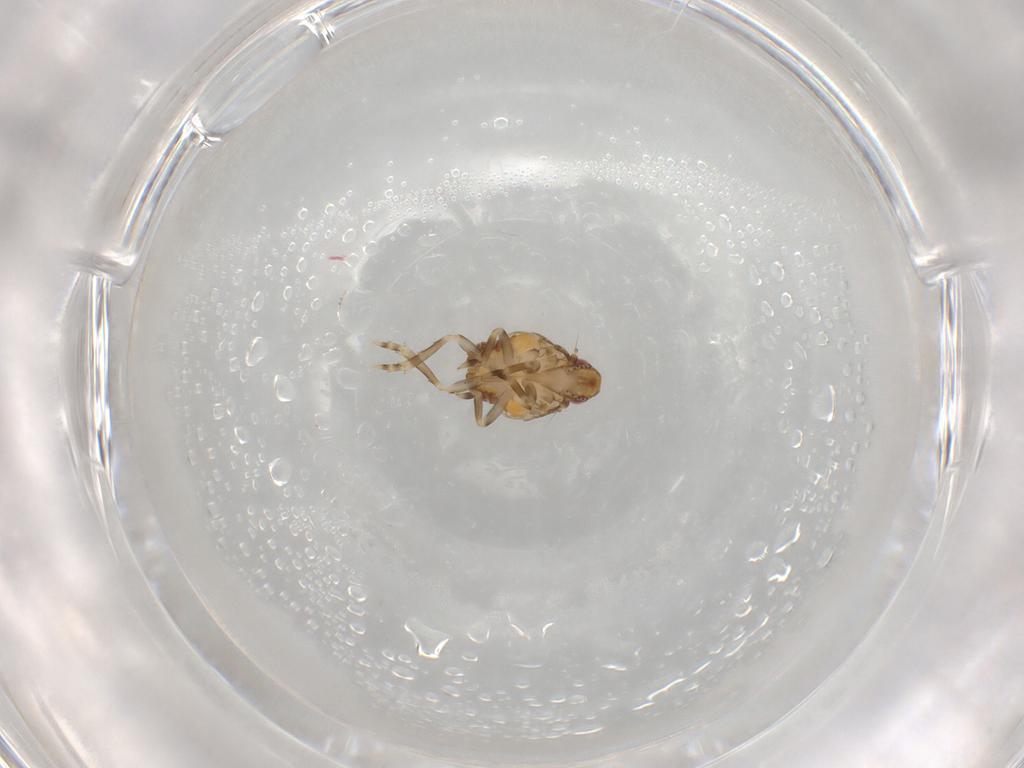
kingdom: Animalia
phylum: Arthropoda
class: Insecta
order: Hemiptera
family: Flatidae
